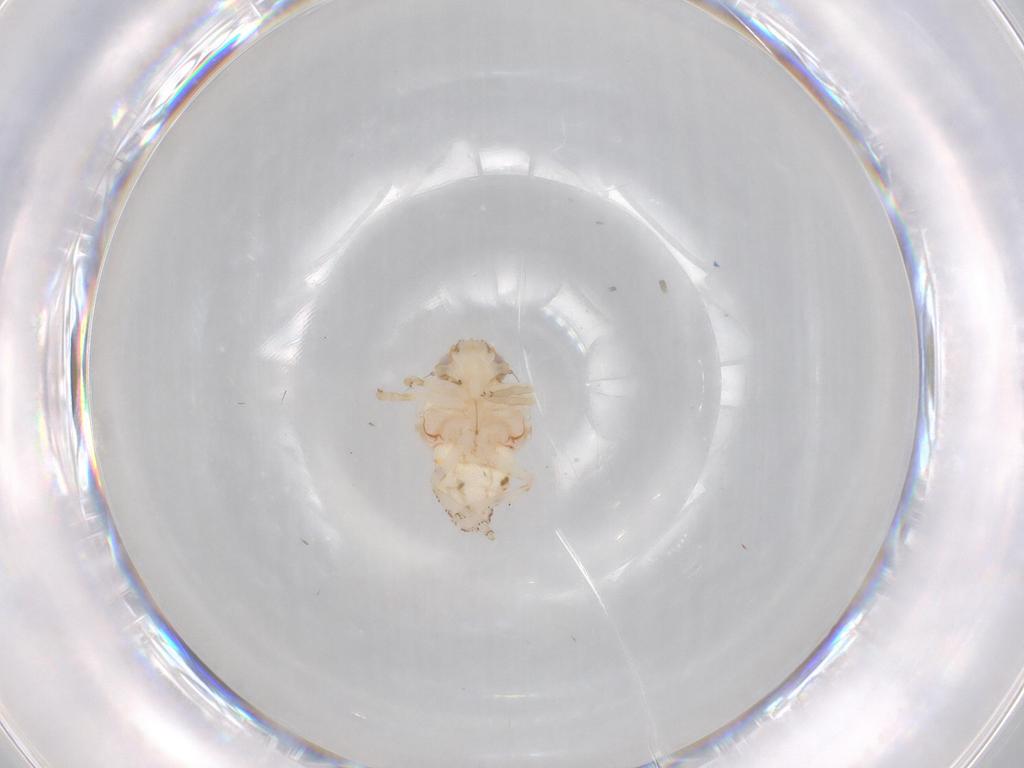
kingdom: Animalia
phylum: Arthropoda
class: Insecta
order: Hemiptera
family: Nogodinidae
